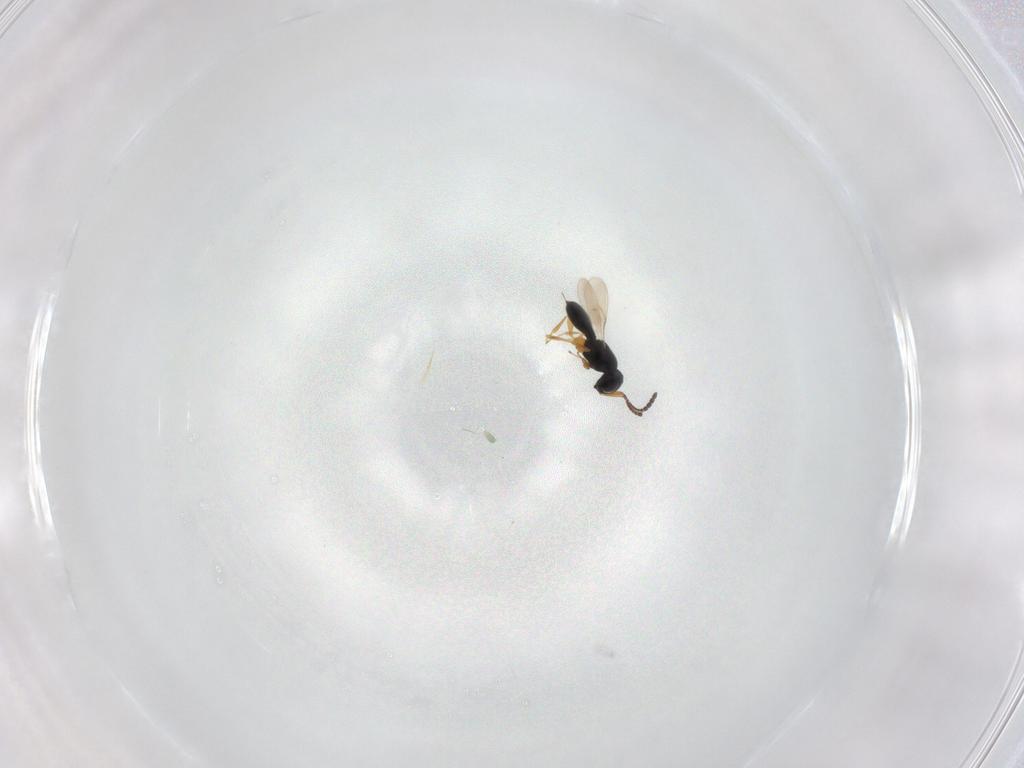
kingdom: Animalia
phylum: Arthropoda
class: Insecta
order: Hymenoptera
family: Scelionidae
